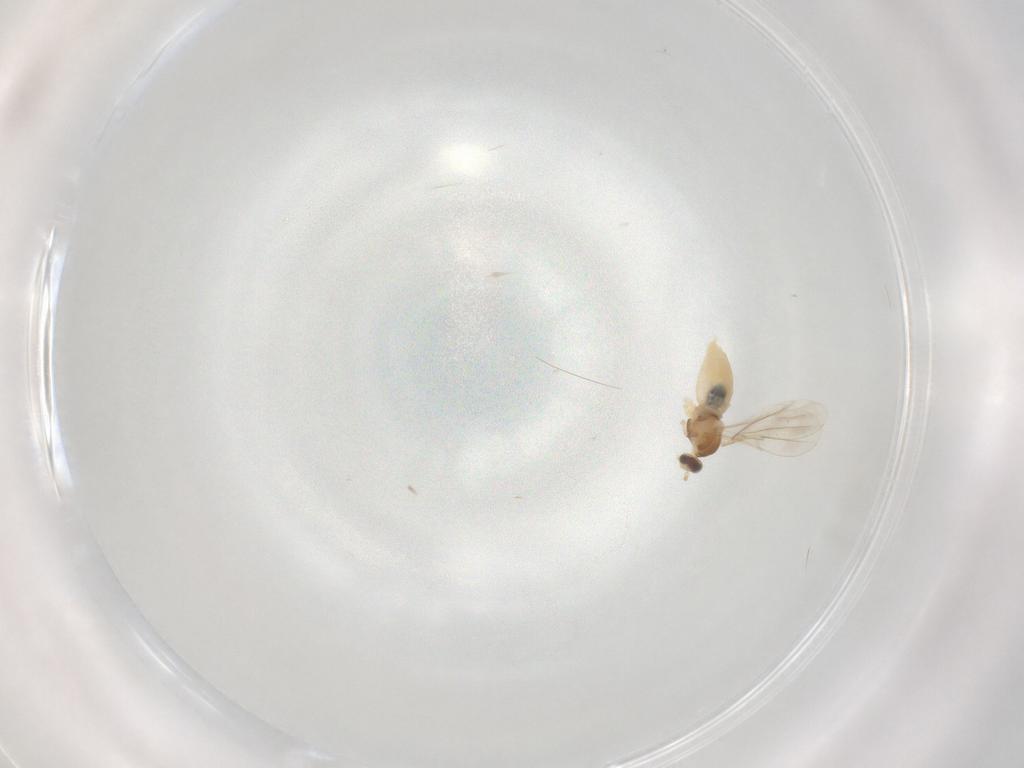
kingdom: Animalia
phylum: Arthropoda
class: Insecta
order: Diptera
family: Cecidomyiidae
